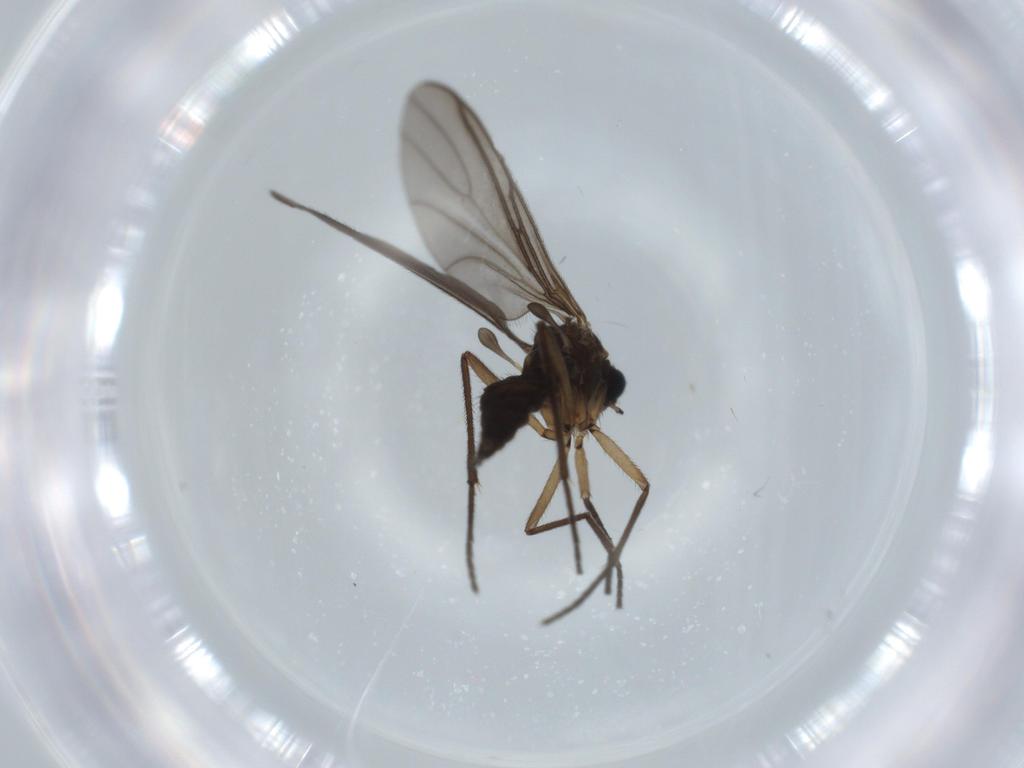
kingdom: Animalia
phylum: Arthropoda
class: Insecta
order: Diptera
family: Sciaridae
